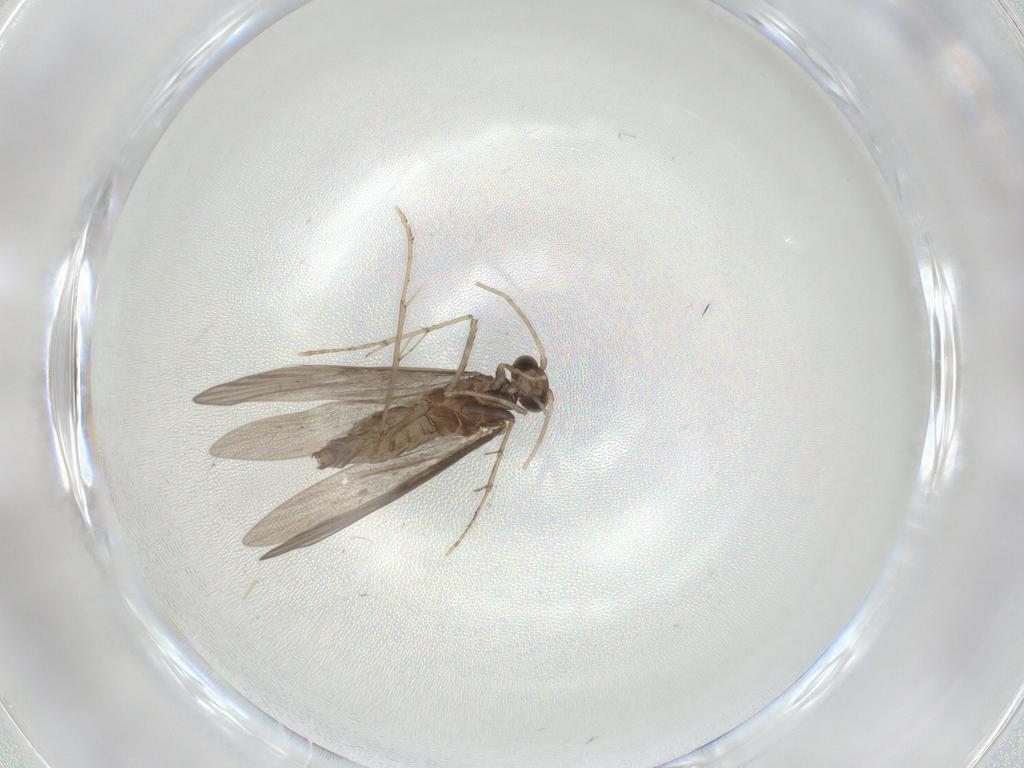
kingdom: Animalia
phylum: Arthropoda
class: Insecta
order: Trichoptera
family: Xiphocentronidae
